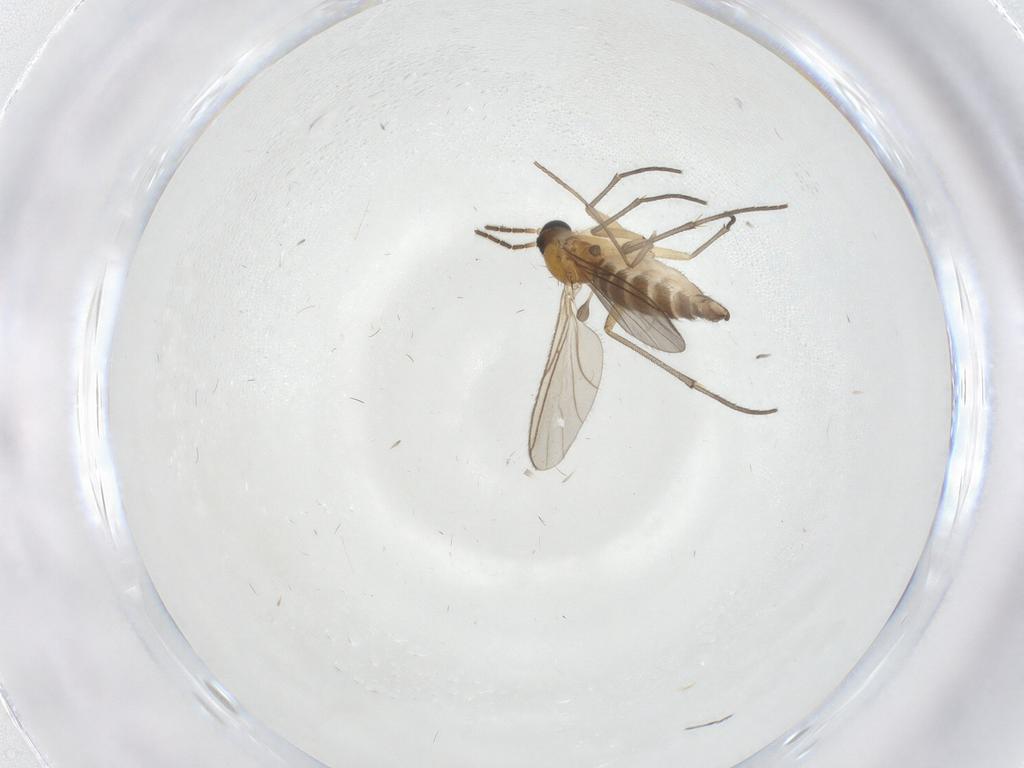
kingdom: Animalia
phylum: Arthropoda
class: Insecta
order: Diptera
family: Psychodidae
